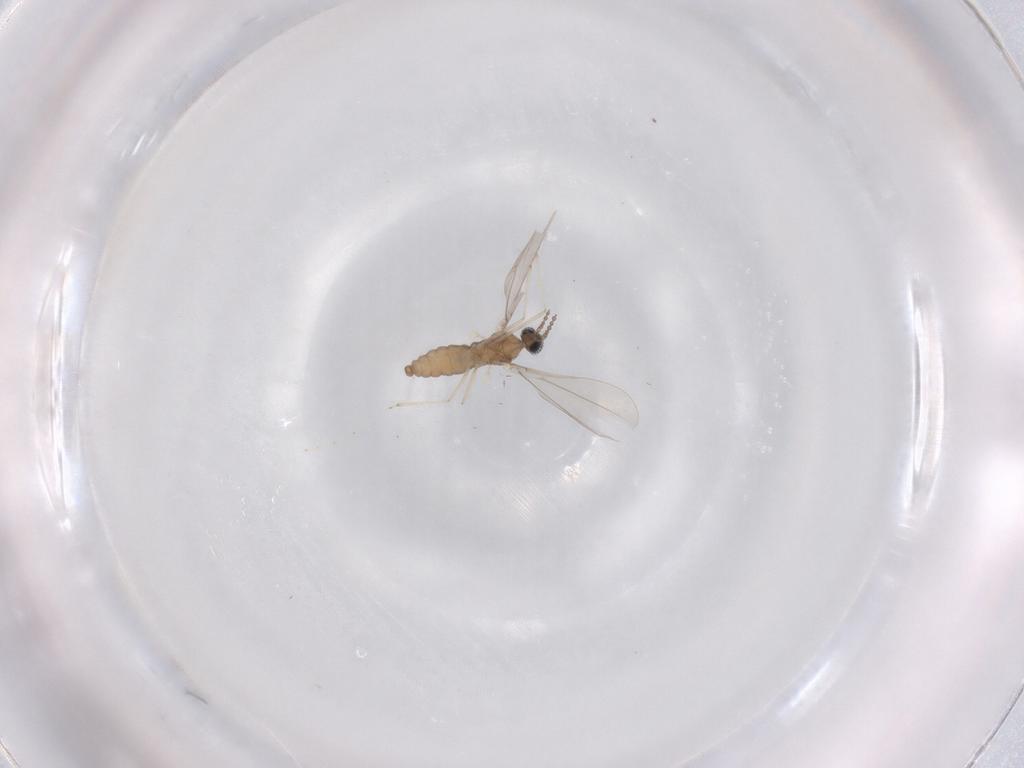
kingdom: Animalia
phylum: Arthropoda
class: Insecta
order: Diptera
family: Cecidomyiidae
